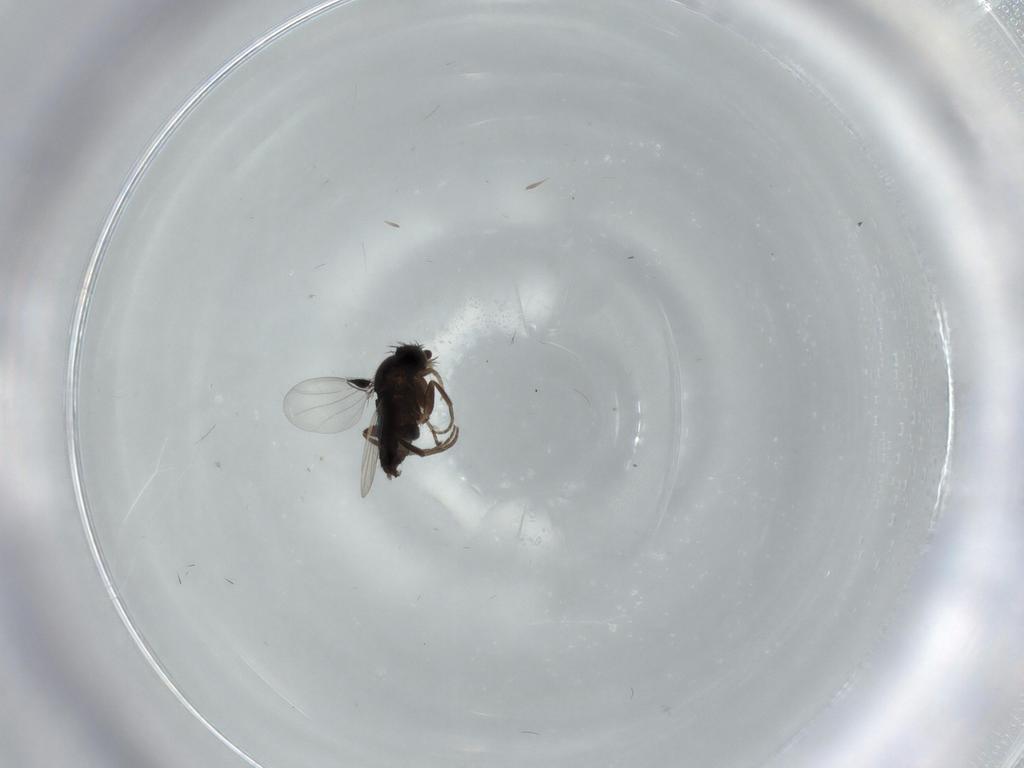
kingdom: Animalia
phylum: Arthropoda
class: Insecta
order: Diptera
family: Phoridae
